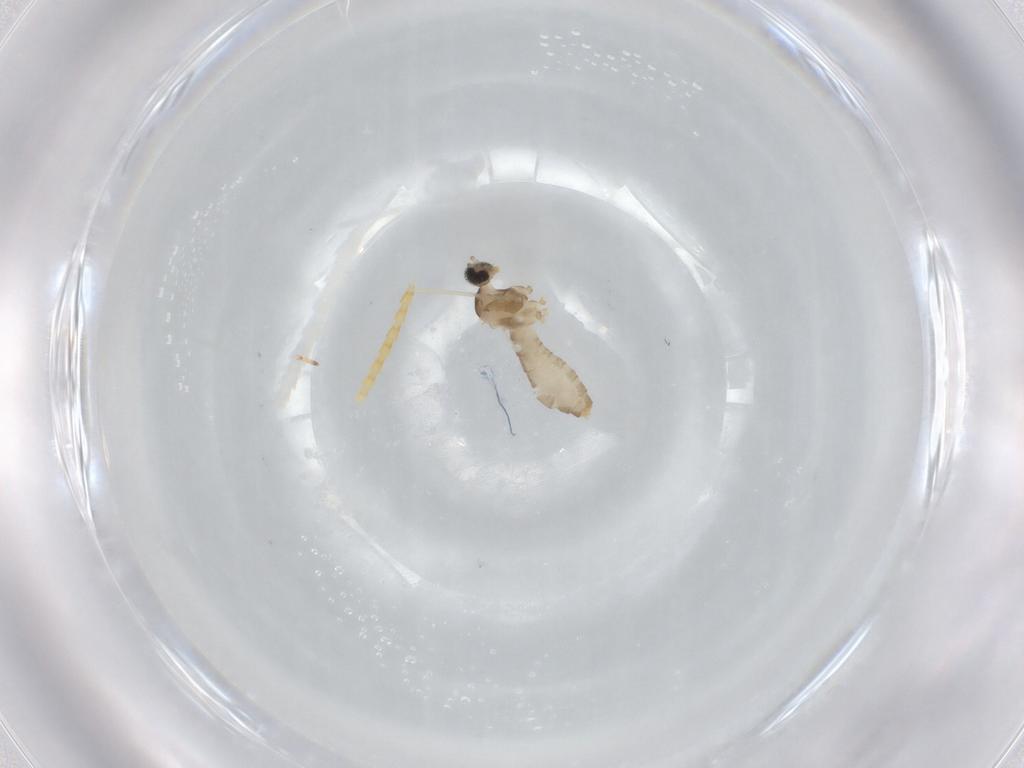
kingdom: Animalia
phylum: Arthropoda
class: Insecta
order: Diptera
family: Cecidomyiidae
